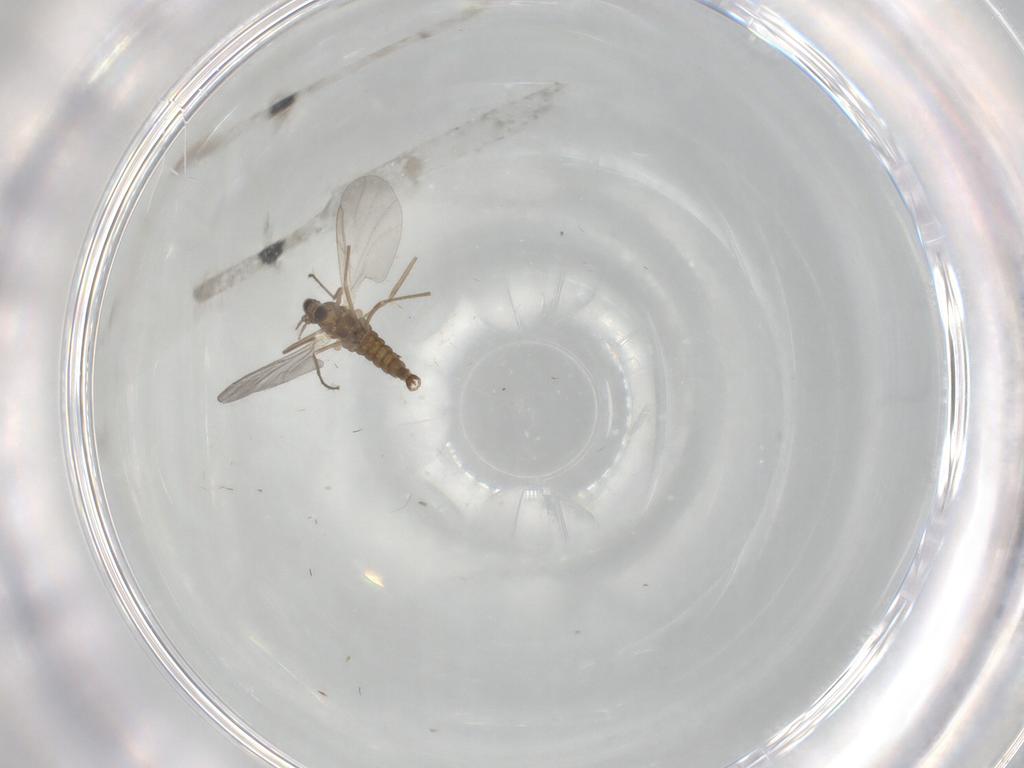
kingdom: Animalia
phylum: Arthropoda
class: Insecta
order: Diptera
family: Cecidomyiidae
